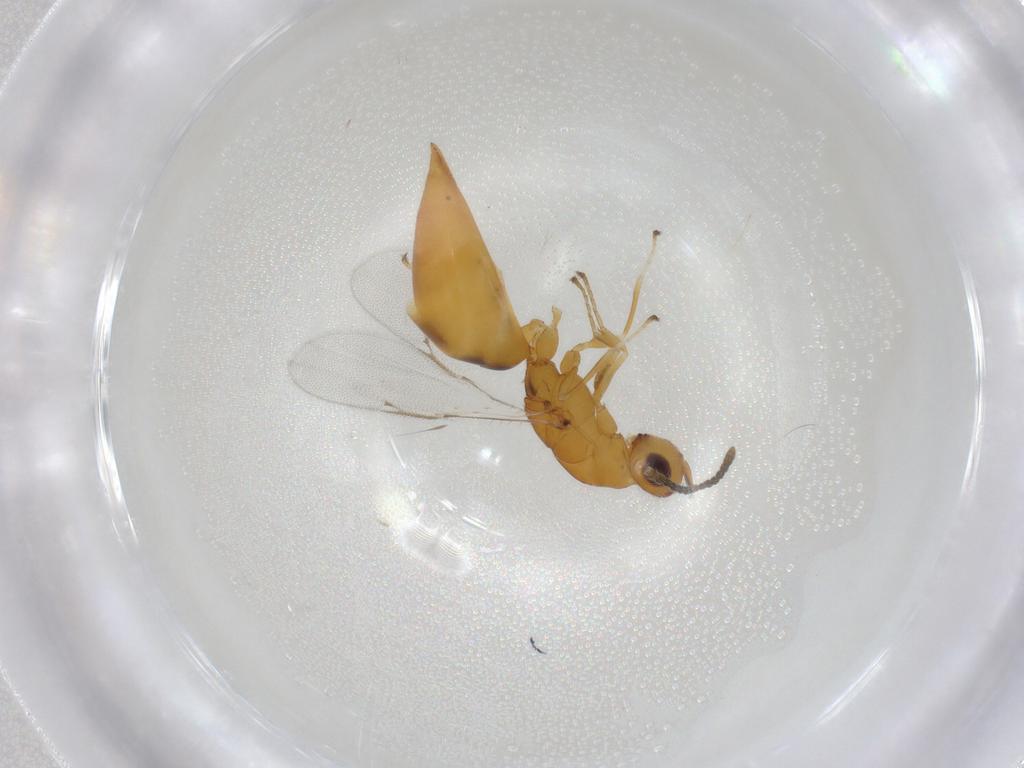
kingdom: Animalia
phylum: Arthropoda
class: Insecta
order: Hymenoptera
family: Eurytomidae
